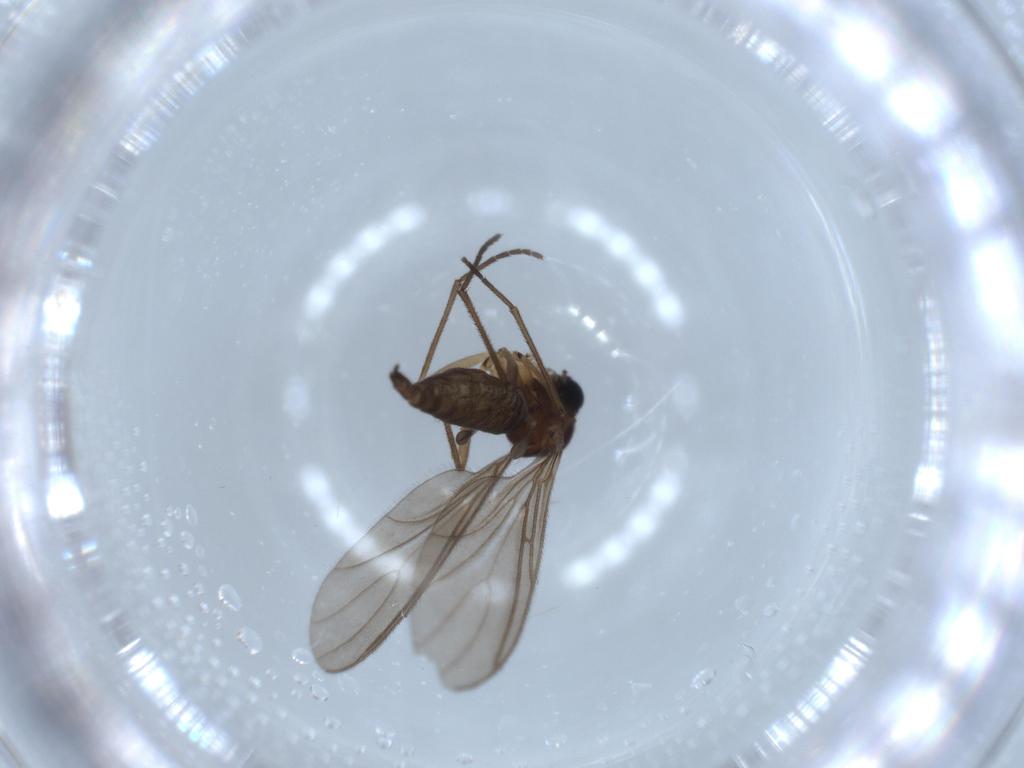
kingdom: Animalia
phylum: Arthropoda
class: Insecta
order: Diptera
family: Sciaridae
